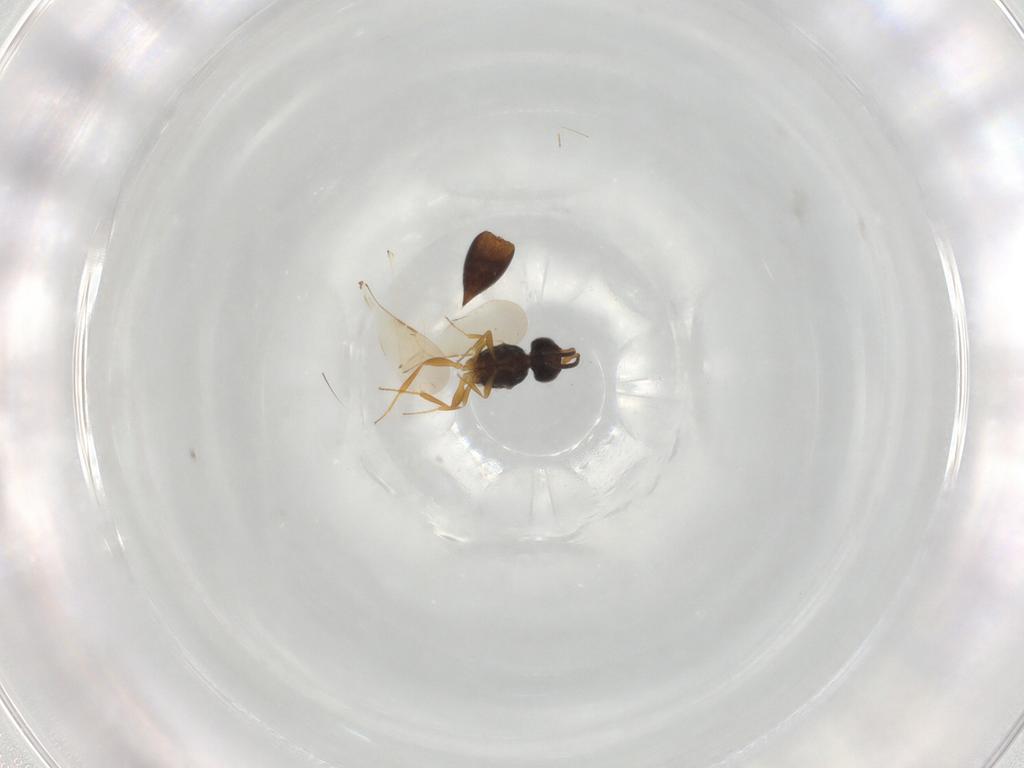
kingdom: Animalia
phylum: Arthropoda
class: Insecta
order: Hymenoptera
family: Ceraphronidae
